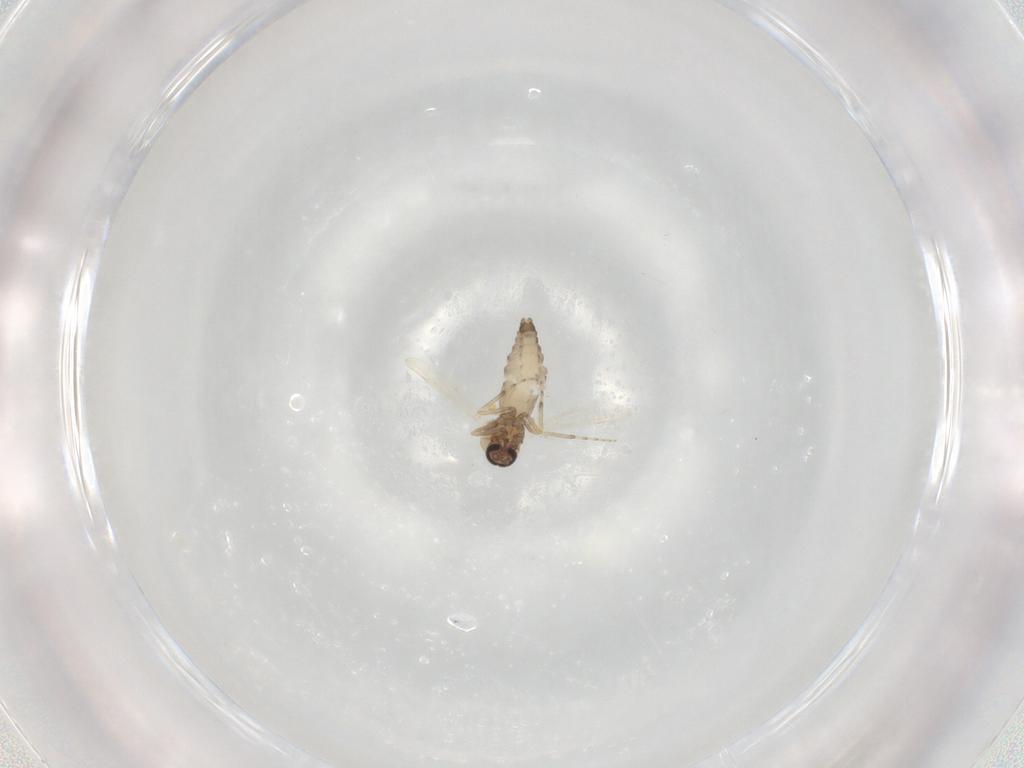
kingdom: Animalia
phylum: Arthropoda
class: Insecta
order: Diptera
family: Ceratopogonidae
